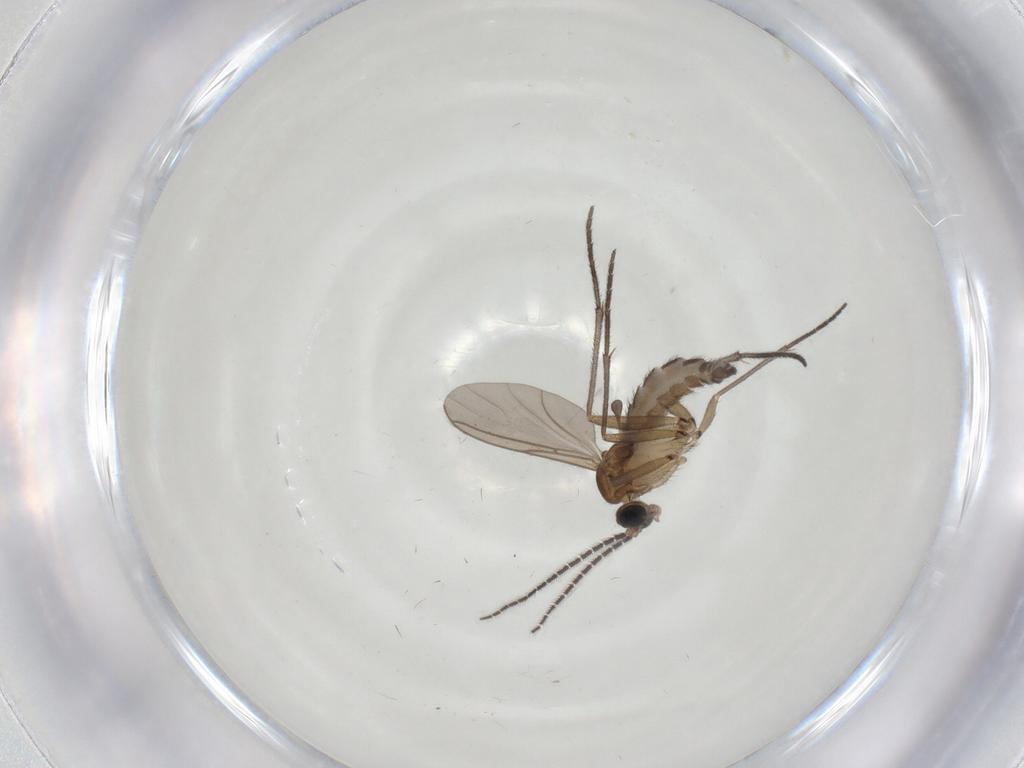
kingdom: Animalia
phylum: Arthropoda
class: Insecta
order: Diptera
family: Sciaridae
